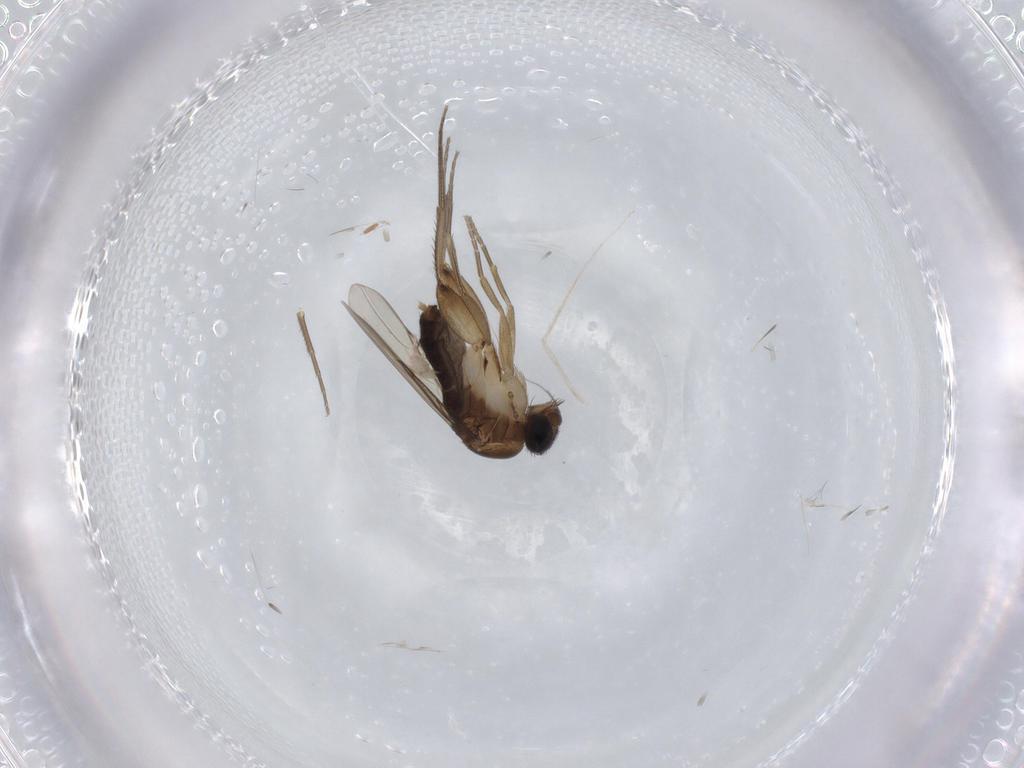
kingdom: Animalia
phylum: Arthropoda
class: Insecta
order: Diptera
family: Phoridae
